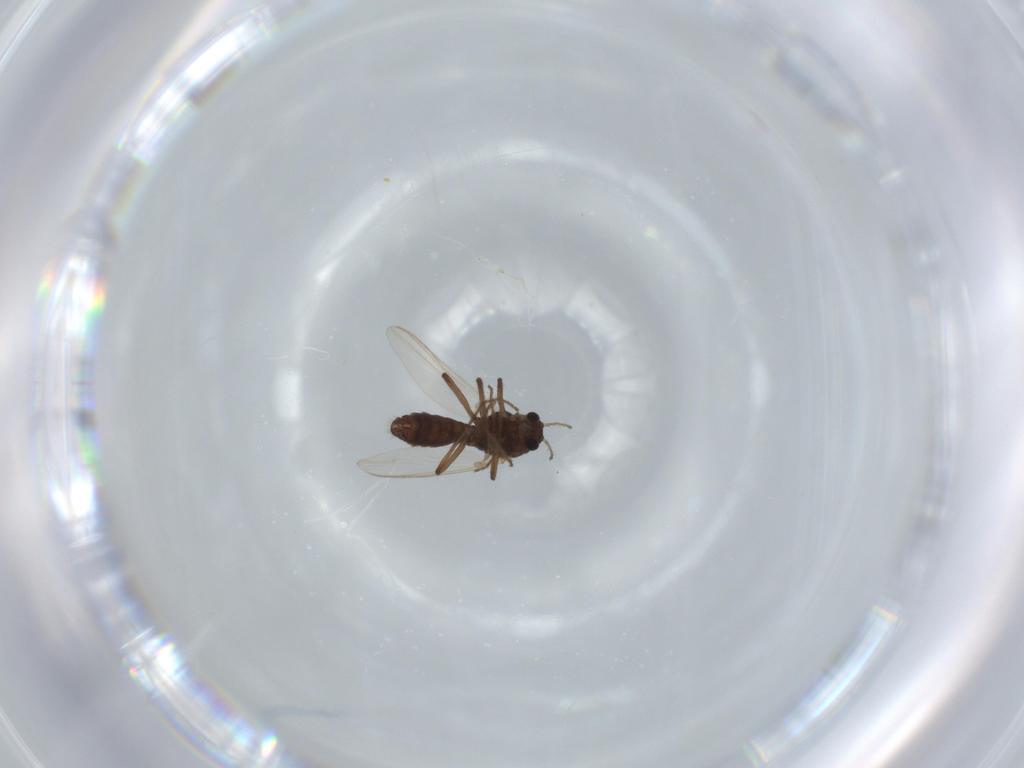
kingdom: Animalia
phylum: Arthropoda
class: Insecta
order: Diptera
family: Chironomidae
